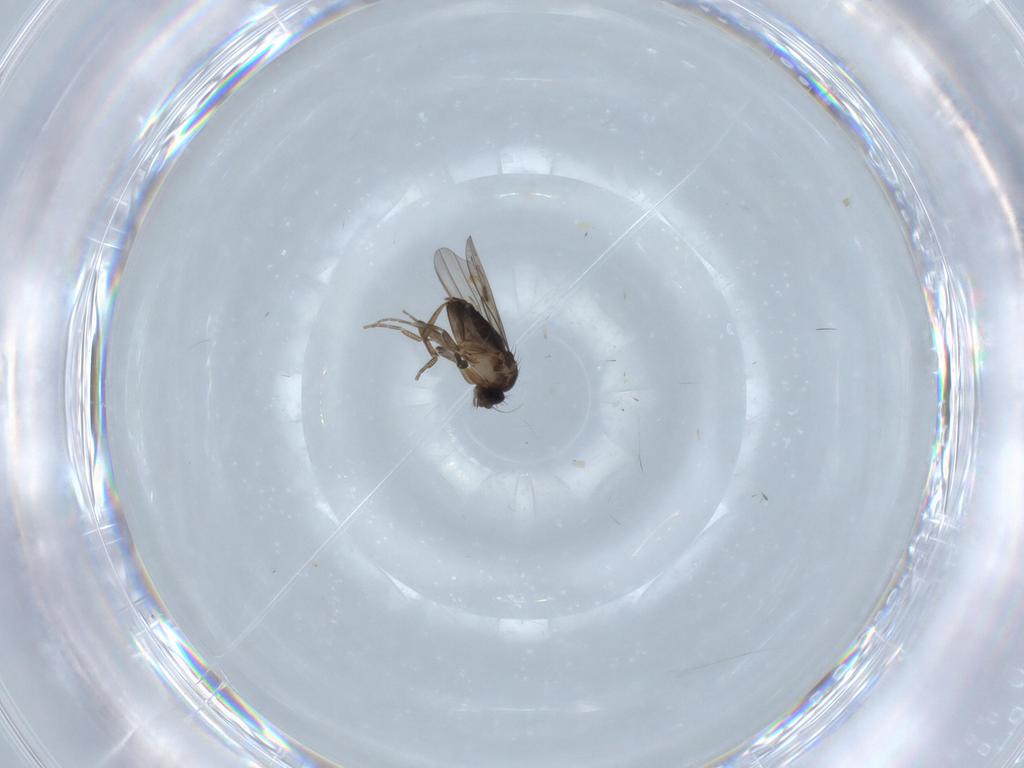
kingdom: Animalia
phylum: Arthropoda
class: Insecta
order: Diptera
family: Phoridae
